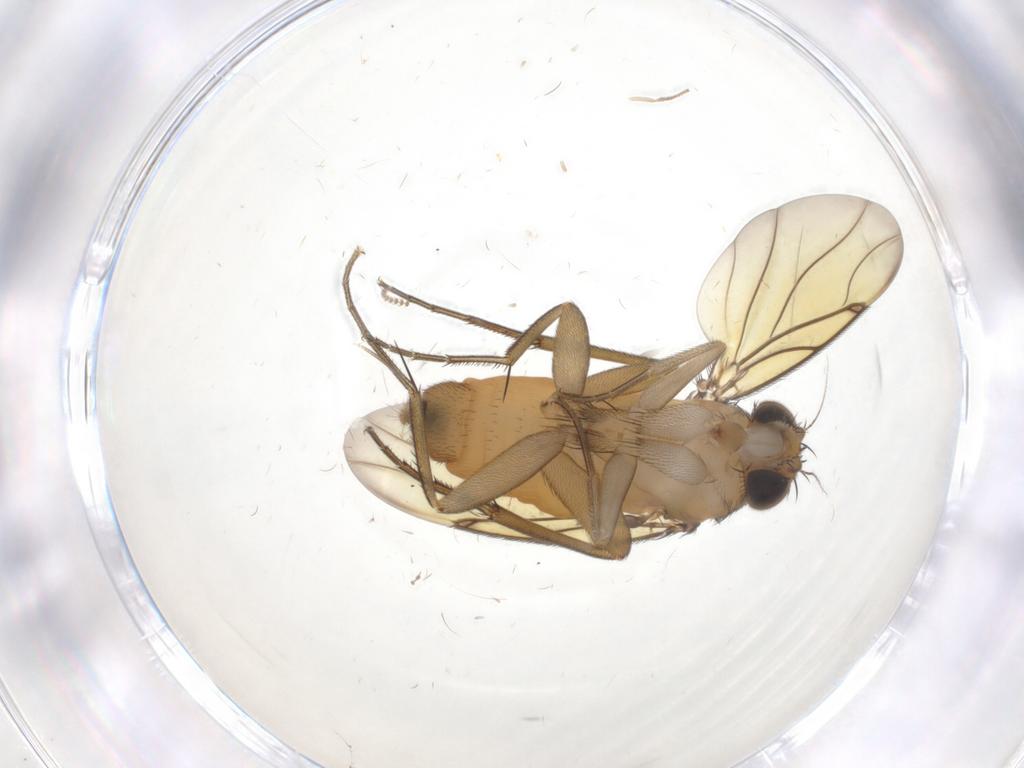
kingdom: Animalia
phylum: Arthropoda
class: Insecta
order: Diptera
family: Psychodidae
